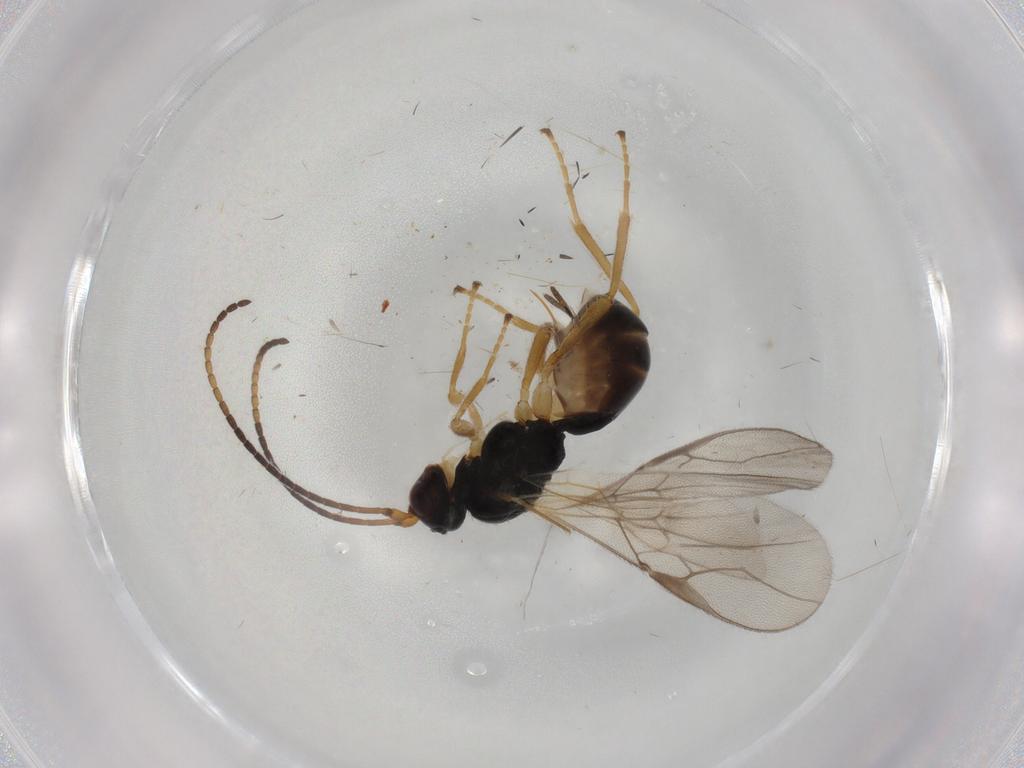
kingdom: Animalia
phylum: Arthropoda
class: Insecta
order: Hymenoptera
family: Braconidae
